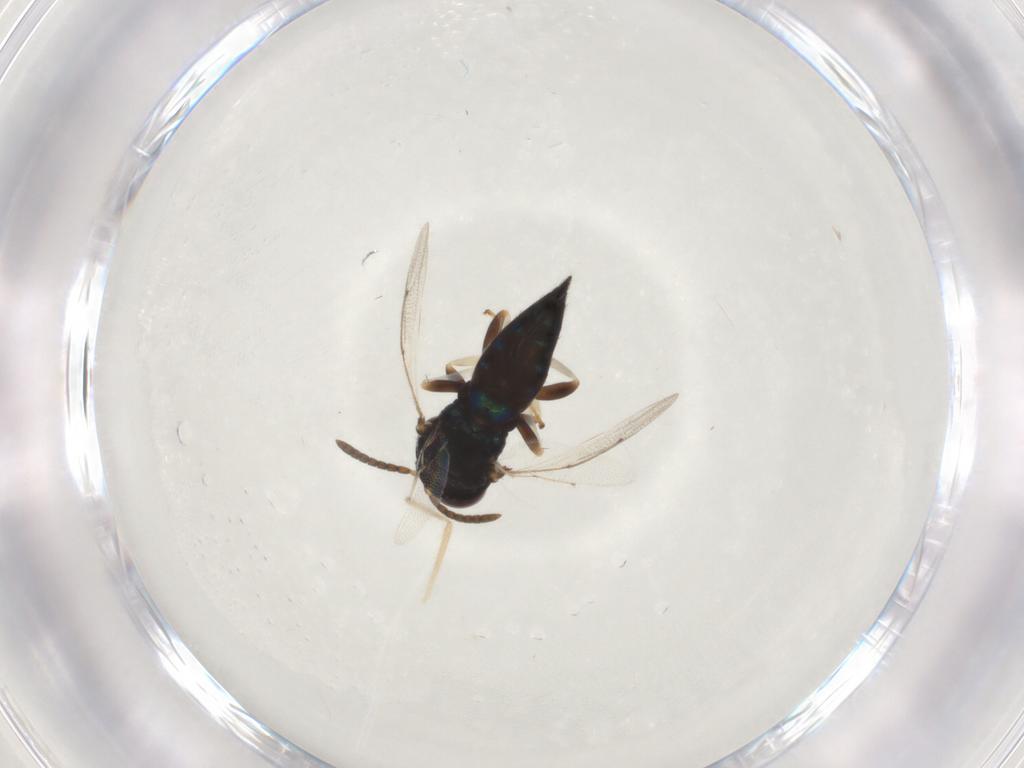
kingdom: Animalia
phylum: Arthropoda
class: Insecta
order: Hymenoptera
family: Pteromalidae
